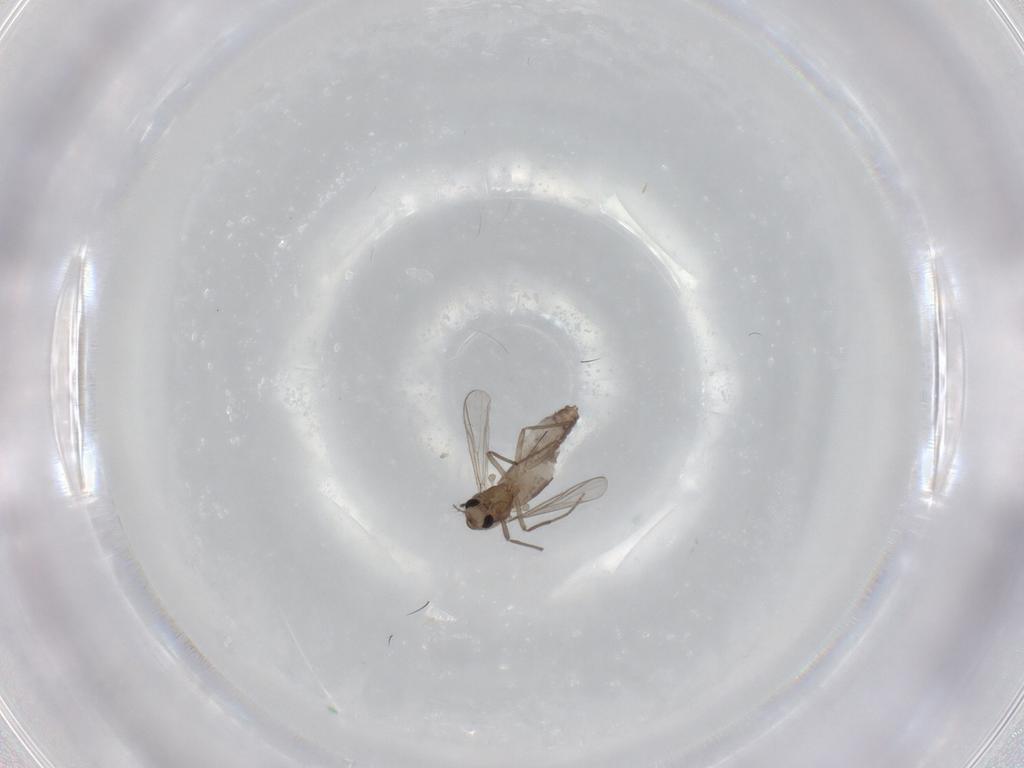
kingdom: Animalia
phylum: Arthropoda
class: Insecta
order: Diptera
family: Chironomidae
